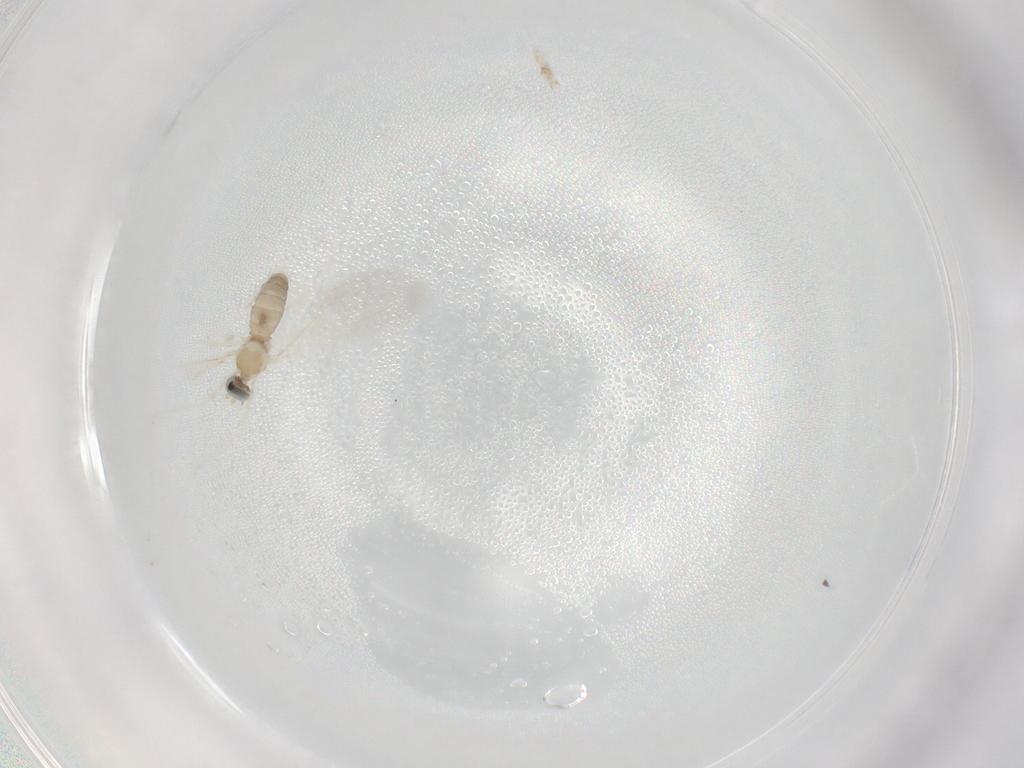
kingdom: Animalia
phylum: Arthropoda
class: Insecta
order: Diptera
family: Cecidomyiidae
